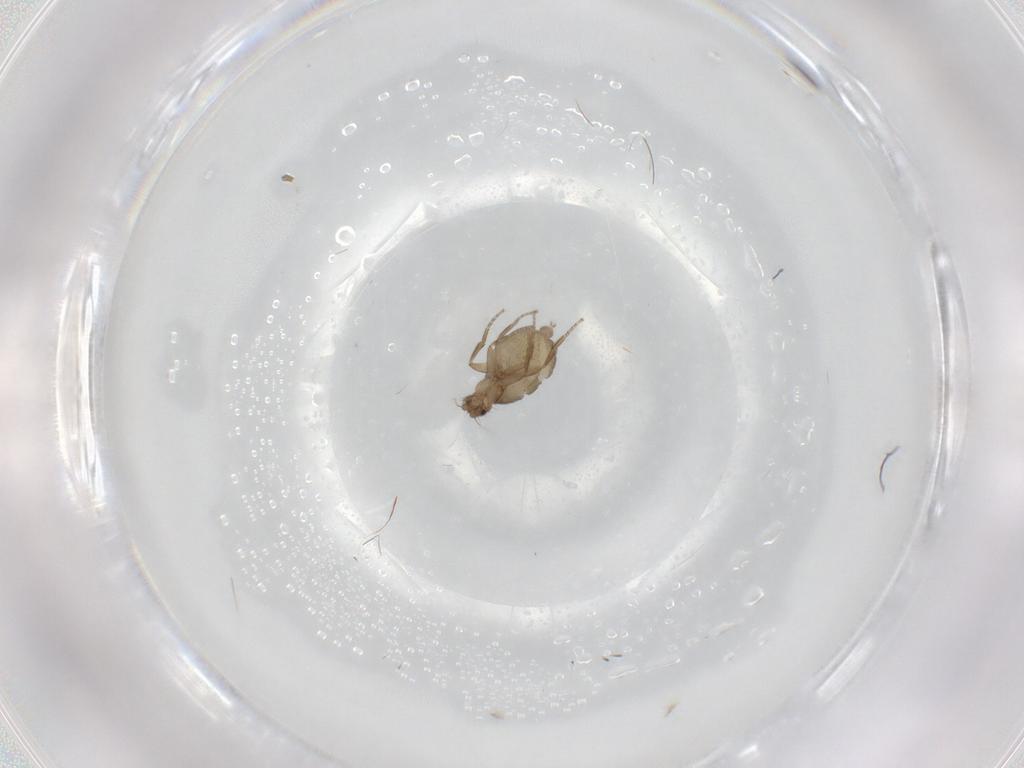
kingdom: Animalia
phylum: Arthropoda
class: Insecta
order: Diptera
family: Phoridae
